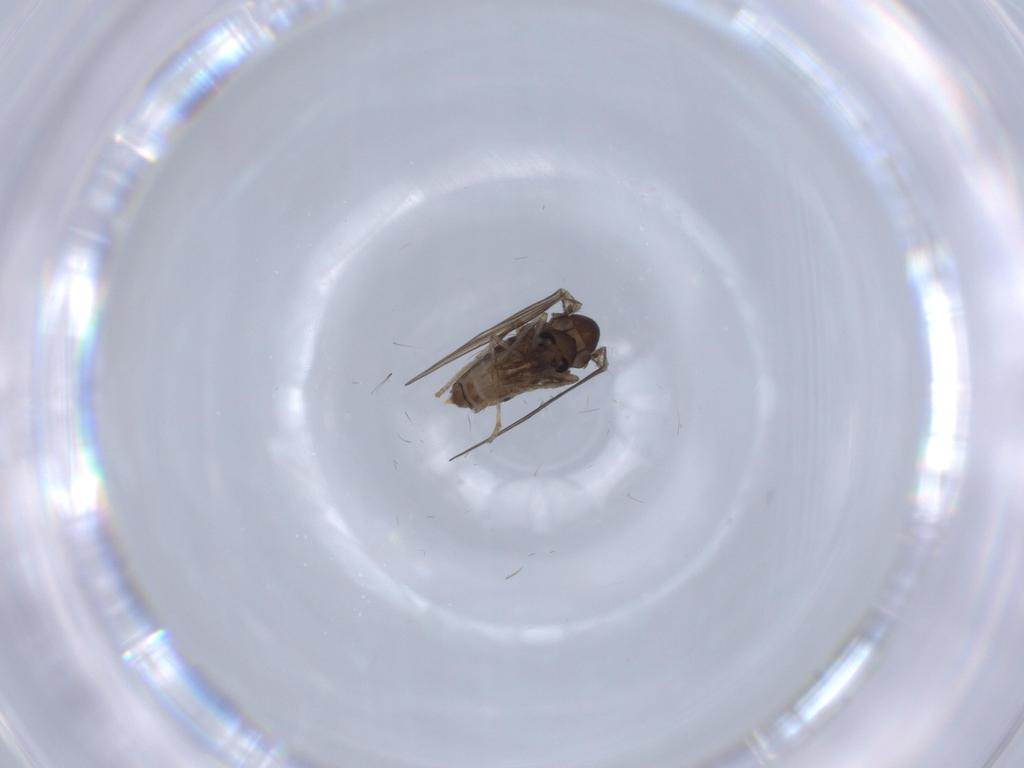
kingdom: Animalia
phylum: Arthropoda
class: Insecta
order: Diptera
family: Psychodidae
